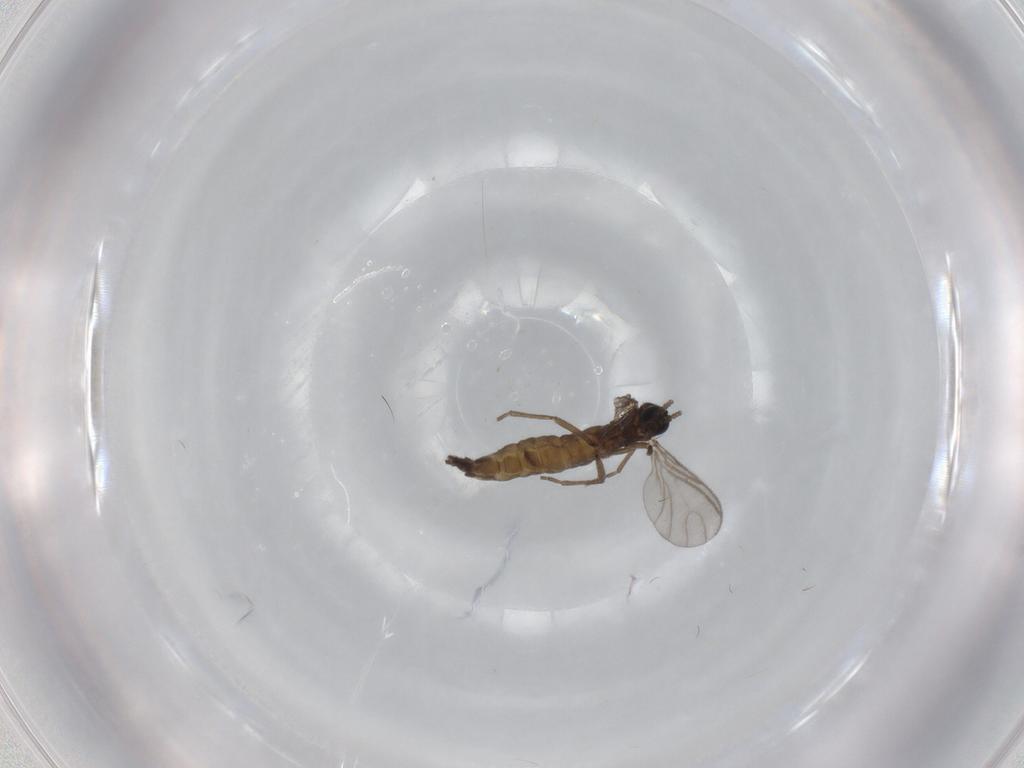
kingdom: Animalia
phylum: Arthropoda
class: Insecta
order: Diptera
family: Sciaridae
